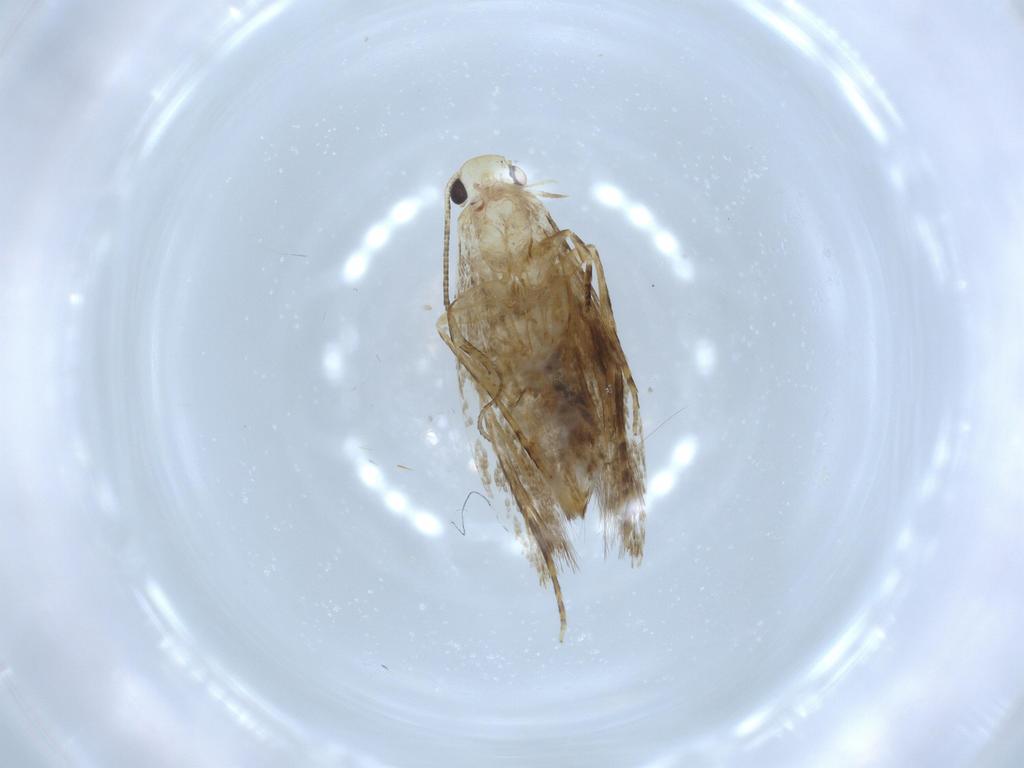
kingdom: Animalia
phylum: Arthropoda
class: Insecta
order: Lepidoptera
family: Tineidae
